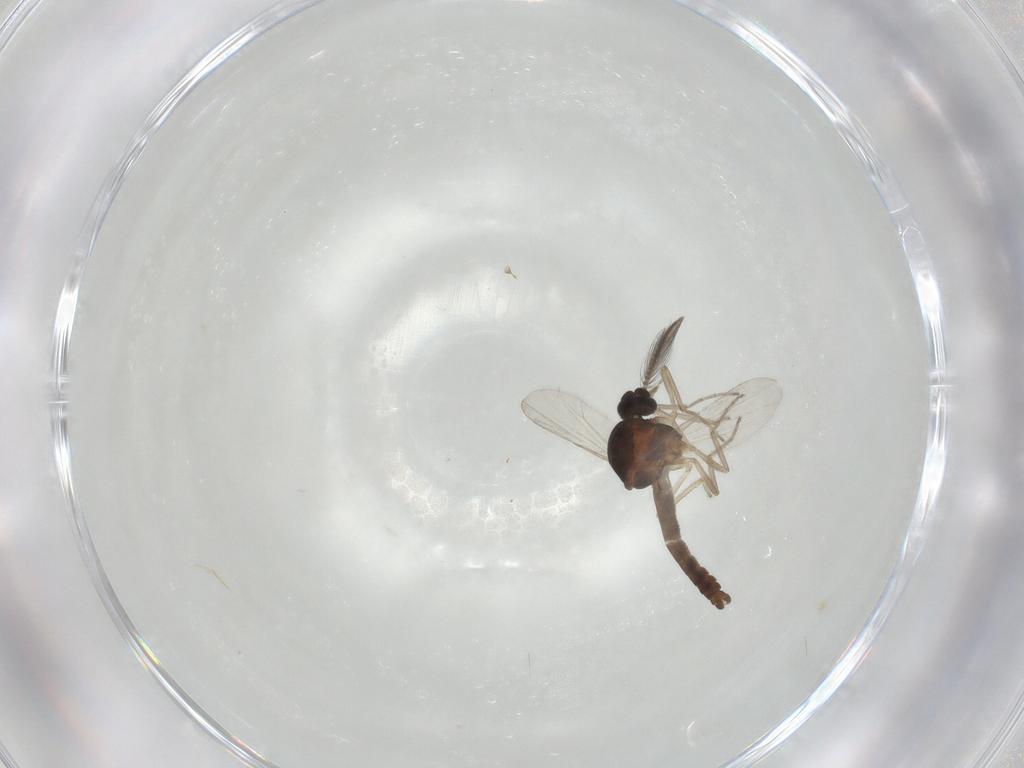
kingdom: Animalia
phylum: Arthropoda
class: Insecta
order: Diptera
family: Ceratopogonidae
